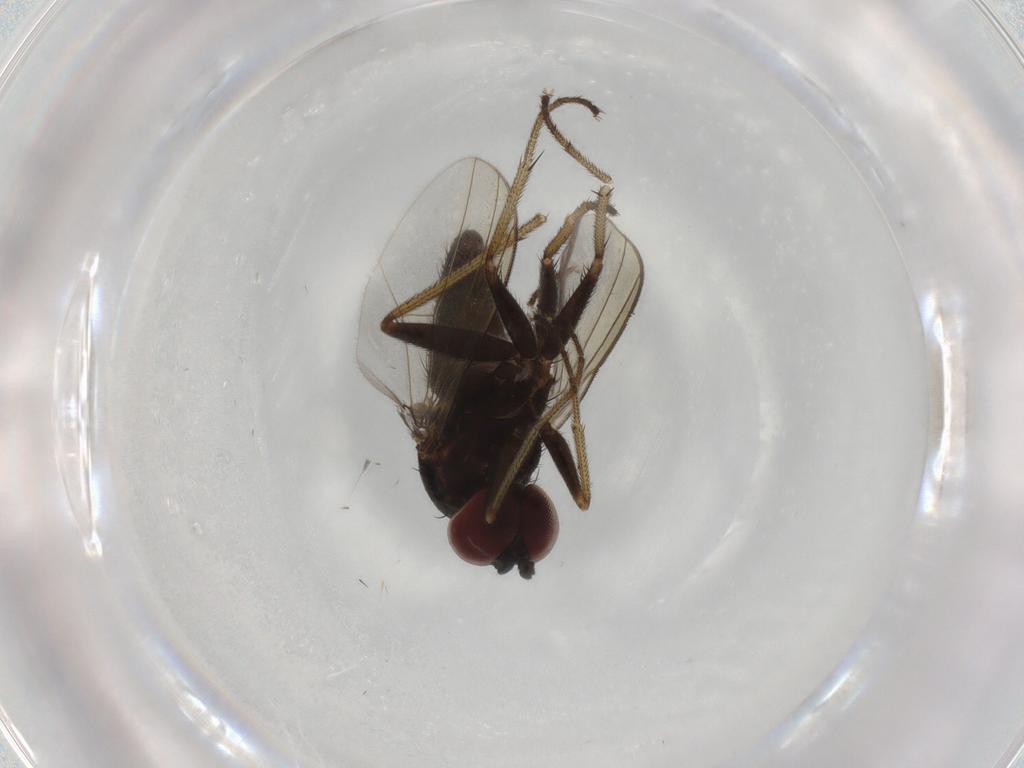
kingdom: Animalia
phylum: Arthropoda
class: Insecta
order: Diptera
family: Dolichopodidae
